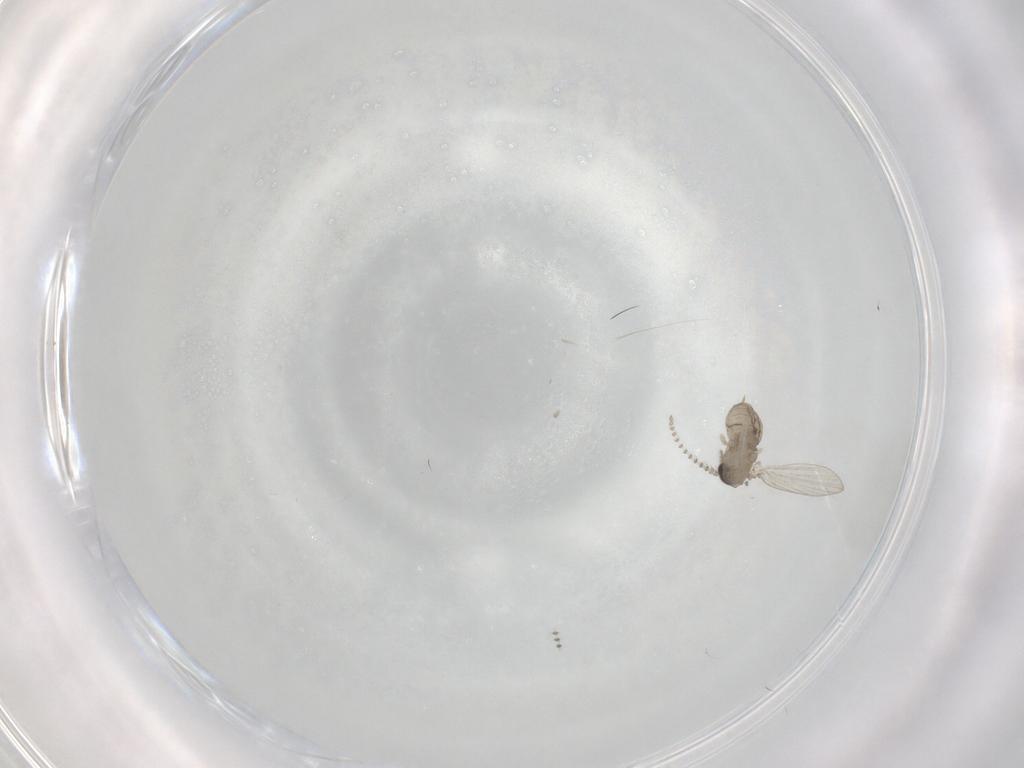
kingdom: Animalia
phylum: Arthropoda
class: Insecta
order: Diptera
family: Psychodidae
